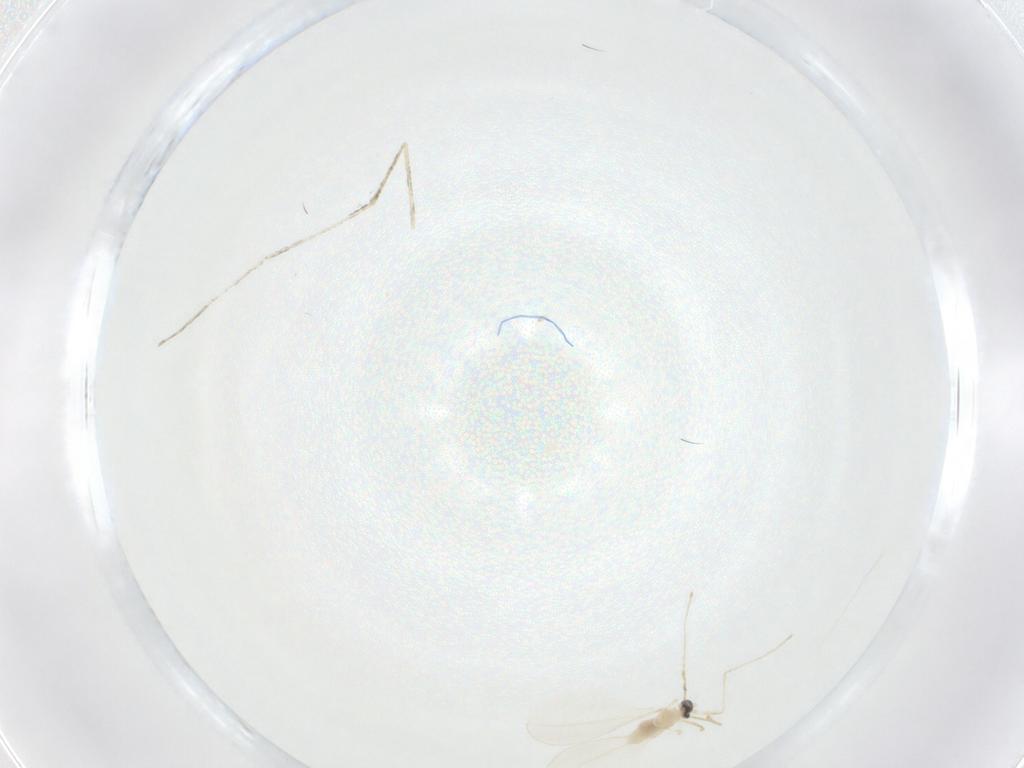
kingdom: Animalia
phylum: Arthropoda
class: Insecta
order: Diptera
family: Cecidomyiidae
